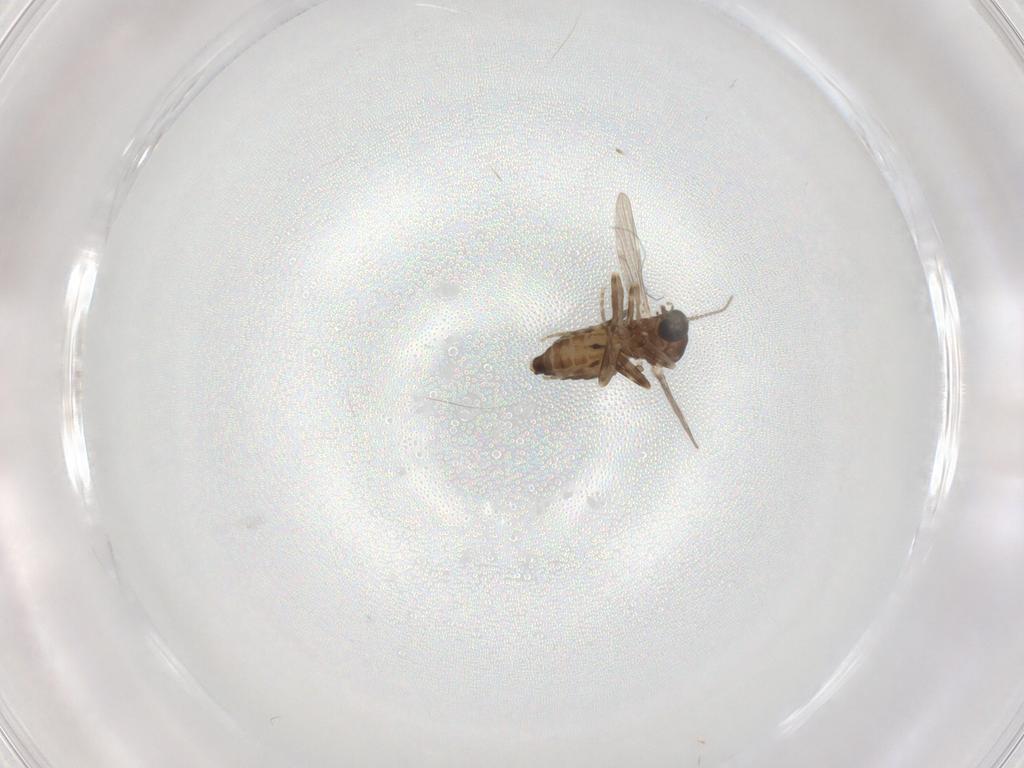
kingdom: Animalia
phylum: Arthropoda
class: Insecta
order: Diptera
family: Ceratopogonidae
